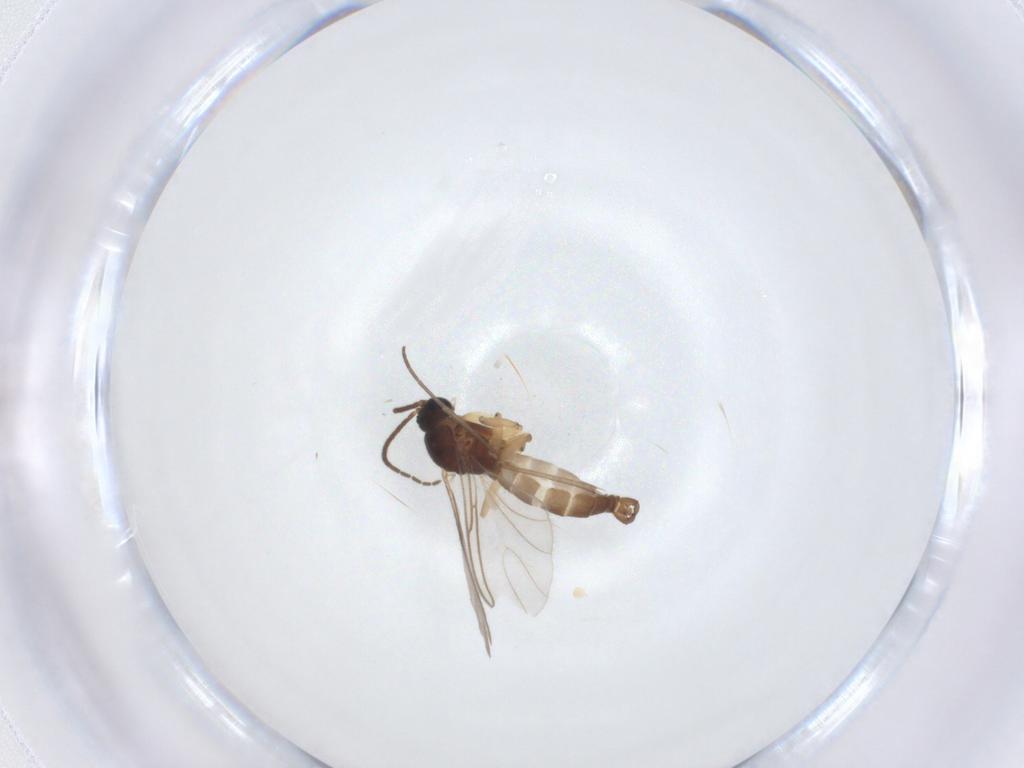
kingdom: Animalia
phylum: Arthropoda
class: Insecta
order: Diptera
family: Sciaridae
